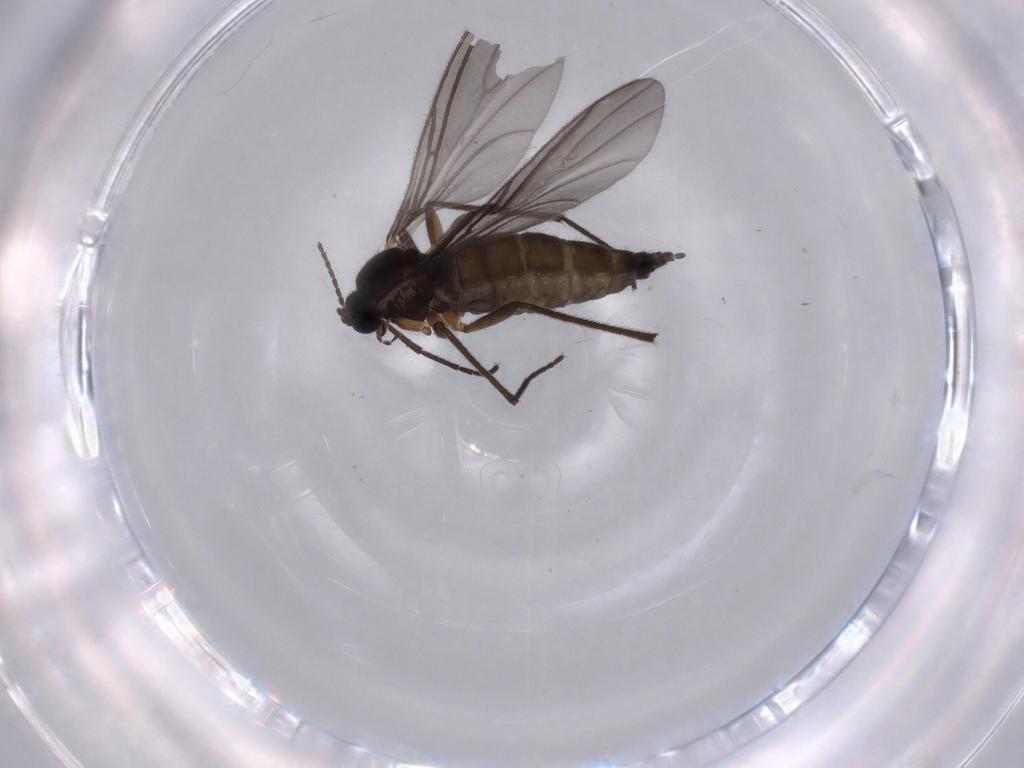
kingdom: Animalia
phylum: Arthropoda
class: Insecta
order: Diptera
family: Sciaridae
